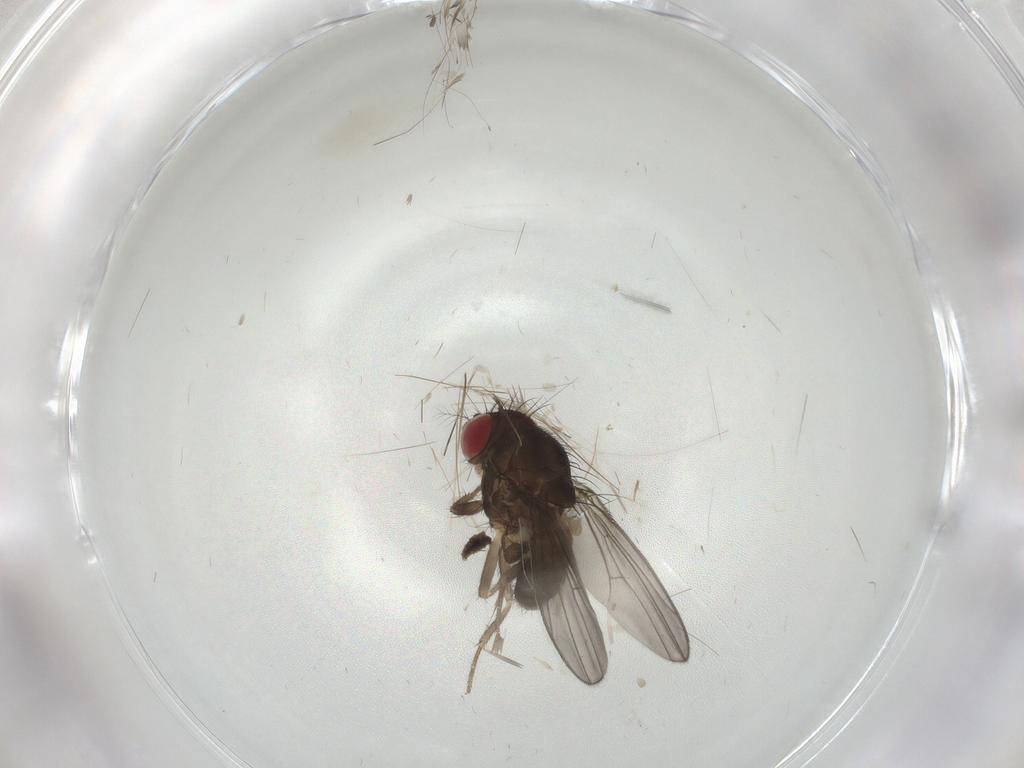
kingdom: Animalia
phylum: Arthropoda
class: Insecta
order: Diptera
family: Drosophilidae
